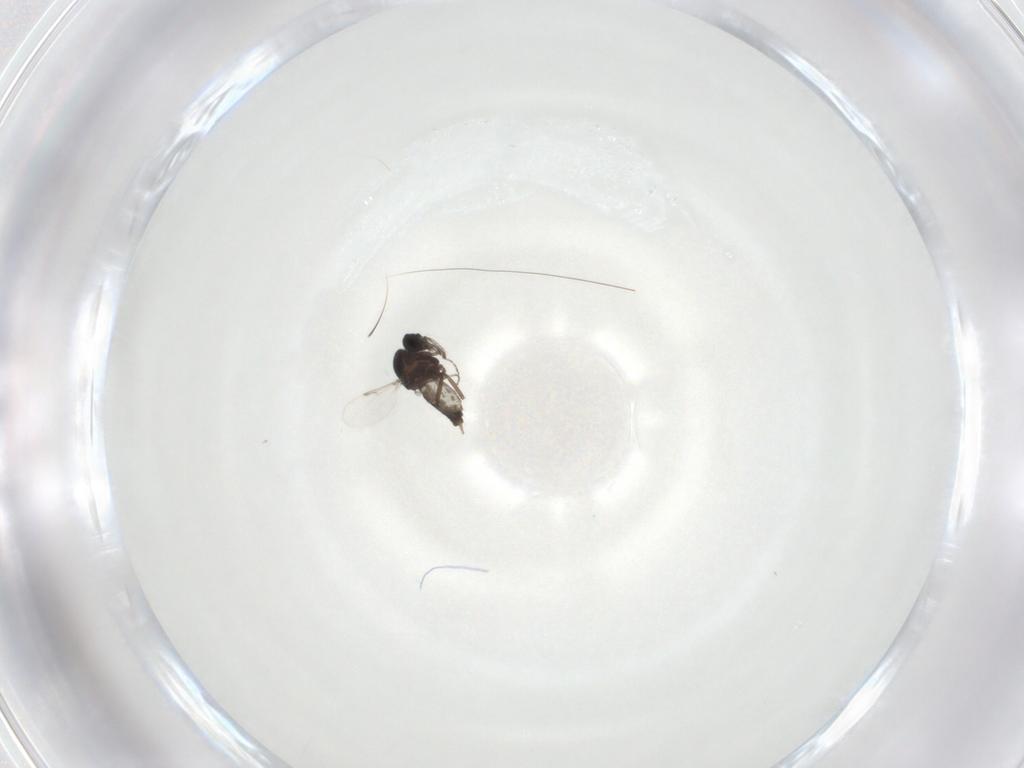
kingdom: Animalia
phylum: Arthropoda
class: Insecta
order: Diptera
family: Ceratopogonidae
